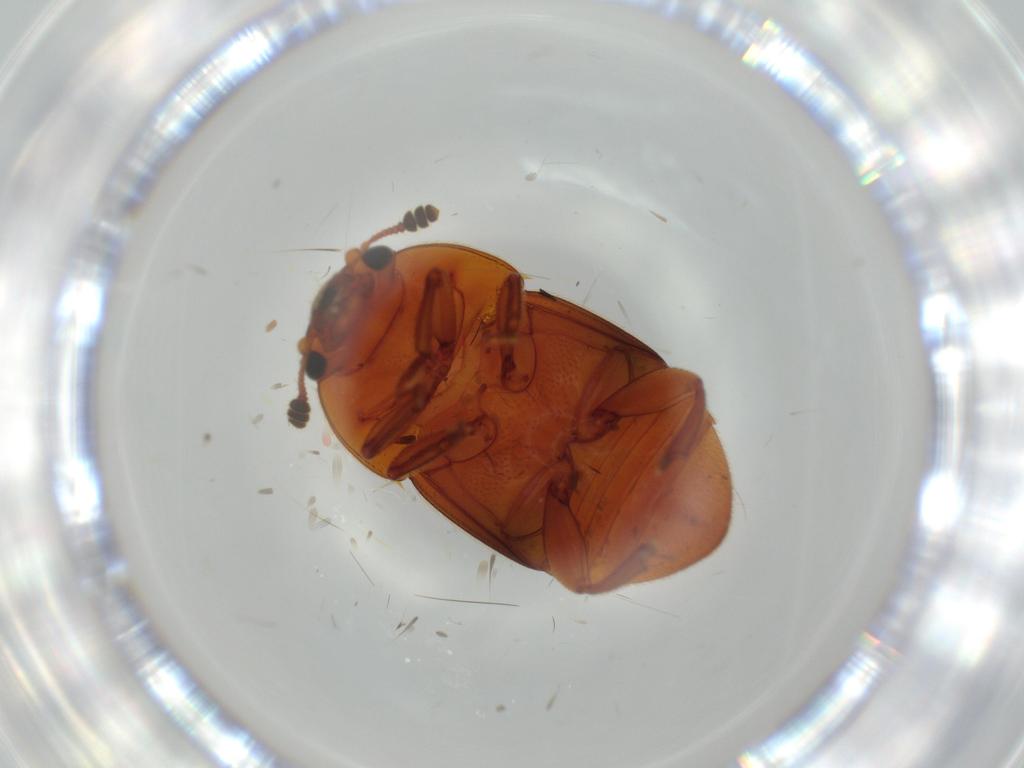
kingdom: Animalia
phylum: Arthropoda
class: Insecta
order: Coleoptera
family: Nitidulidae
